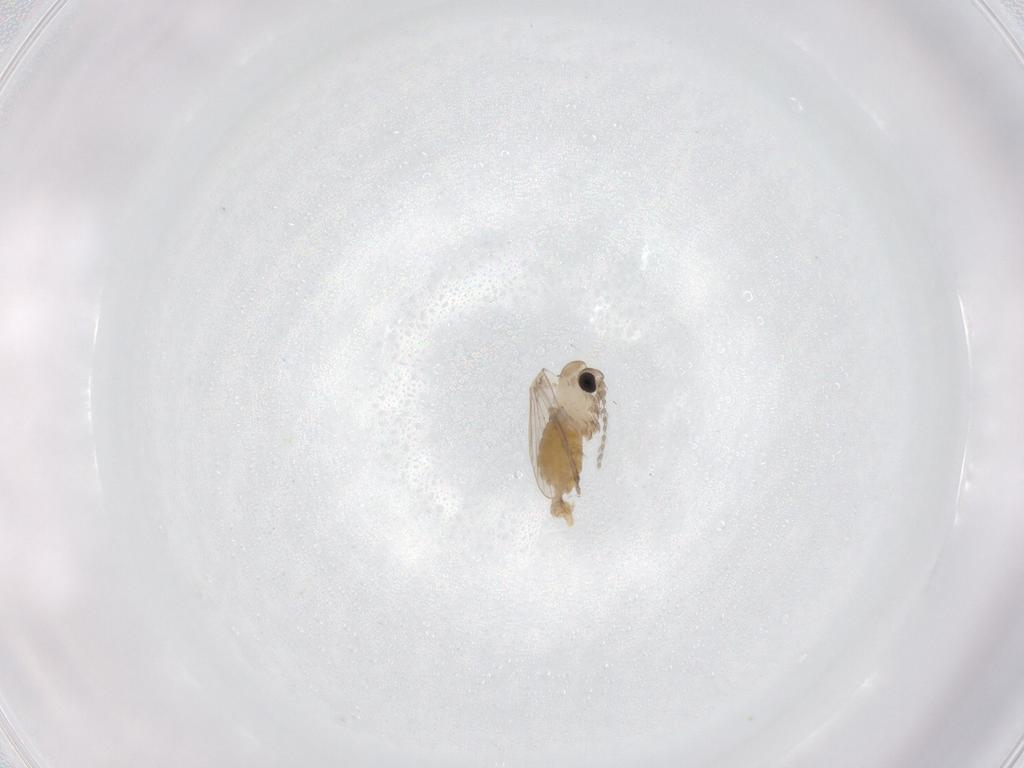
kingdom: Animalia
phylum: Arthropoda
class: Insecta
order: Diptera
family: Psychodidae
